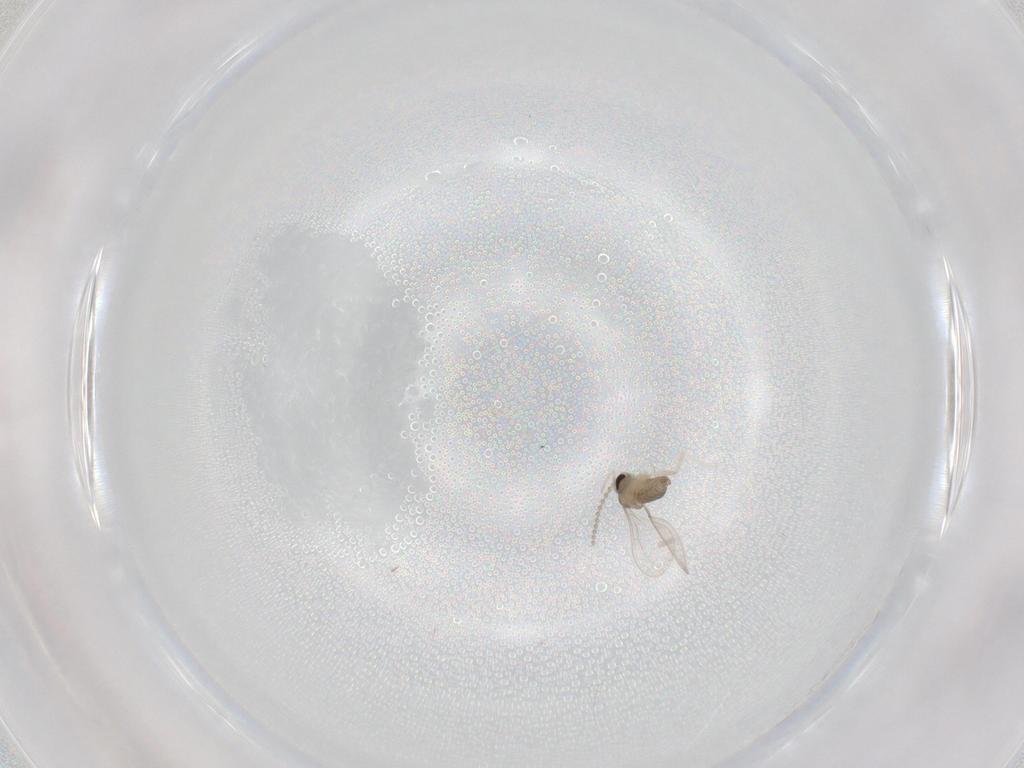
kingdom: Animalia
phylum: Arthropoda
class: Insecta
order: Diptera
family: Cecidomyiidae
